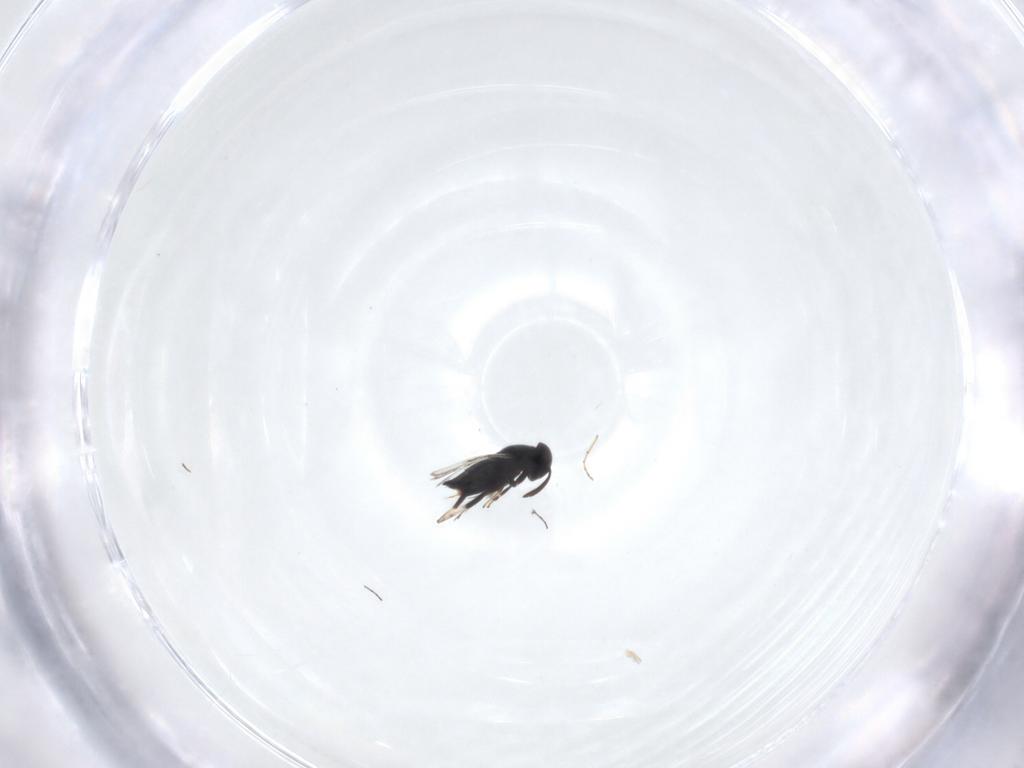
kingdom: Animalia
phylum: Arthropoda
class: Insecta
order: Hymenoptera
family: Signiphoridae
